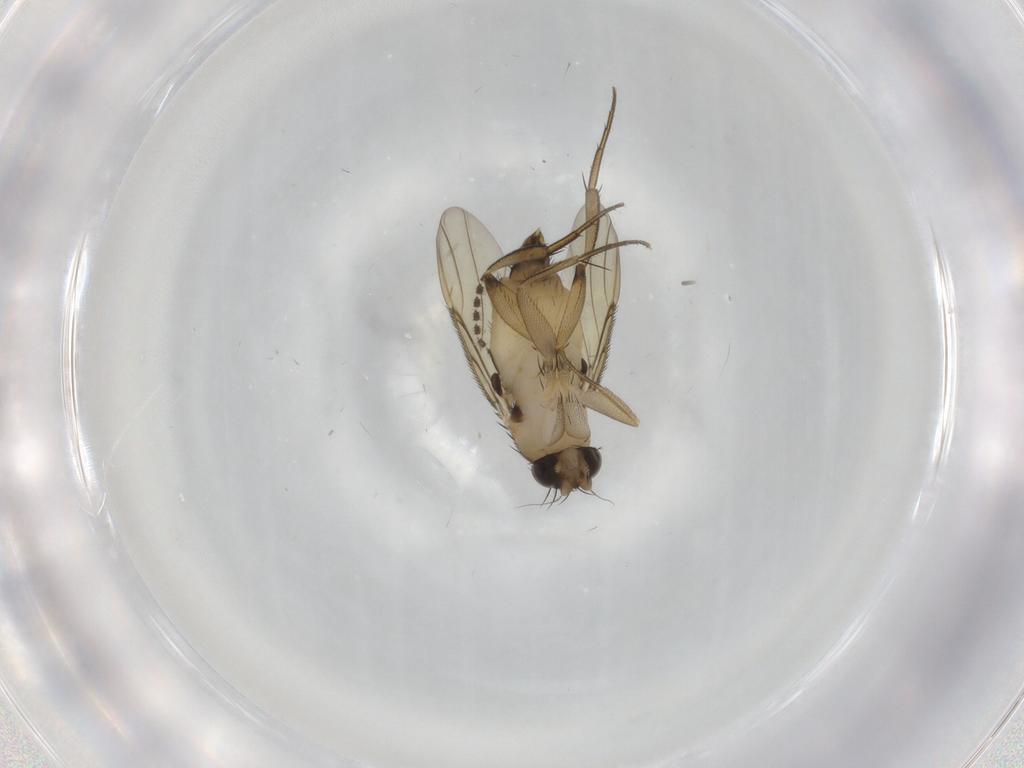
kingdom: Animalia
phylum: Arthropoda
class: Insecta
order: Diptera
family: Phoridae
